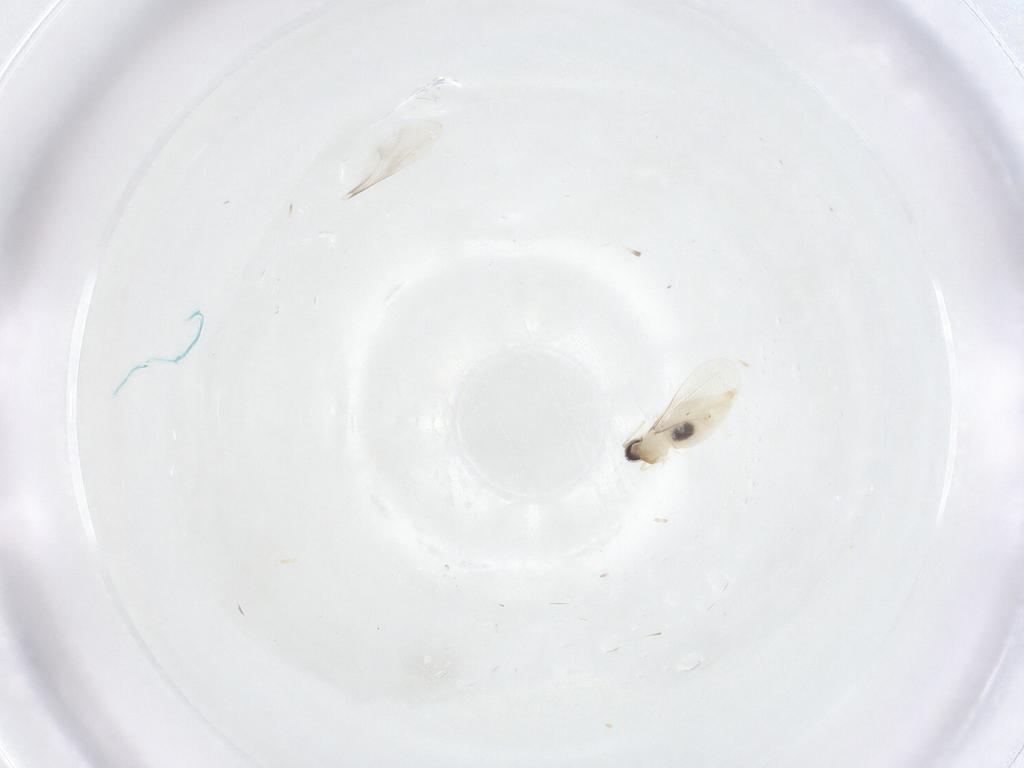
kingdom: Animalia
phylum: Arthropoda
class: Insecta
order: Diptera
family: Cecidomyiidae
